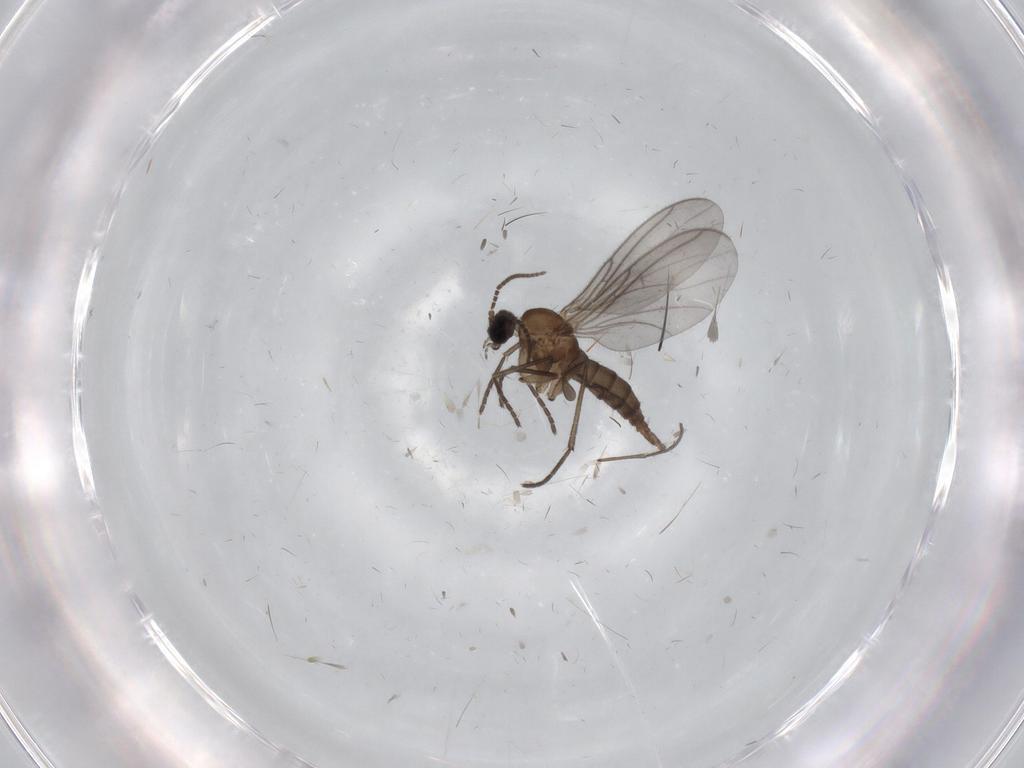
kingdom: Animalia
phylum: Arthropoda
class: Insecta
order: Diptera
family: Sciaridae
